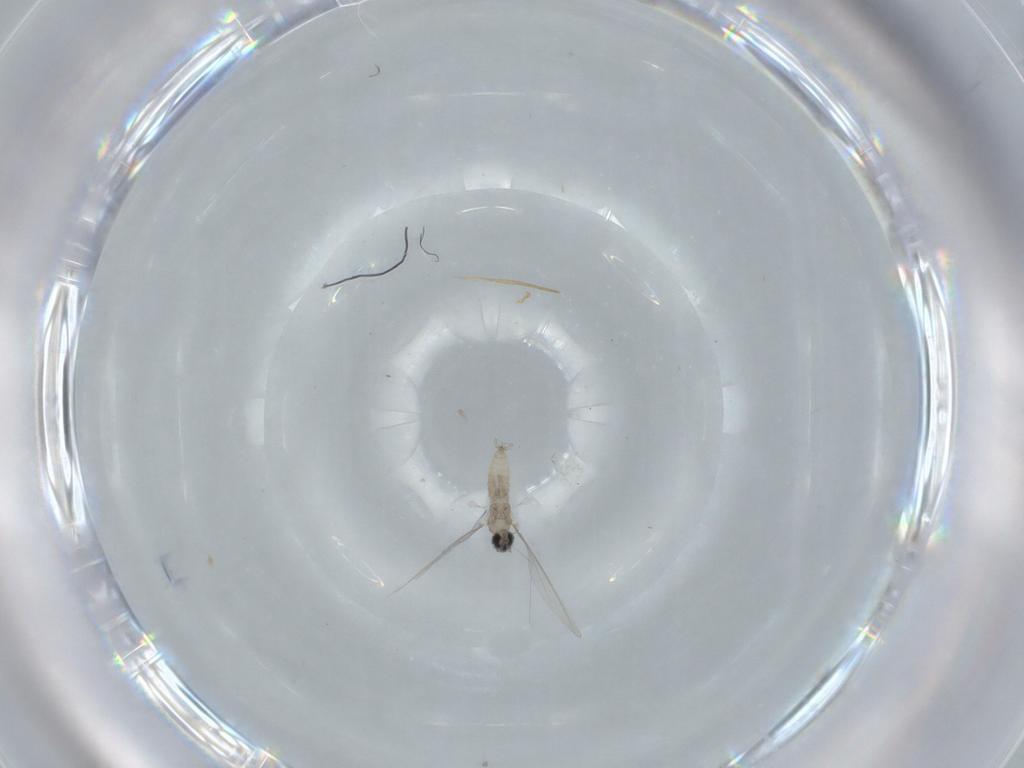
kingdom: Animalia
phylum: Arthropoda
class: Insecta
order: Diptera
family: Cecidomyiidae
